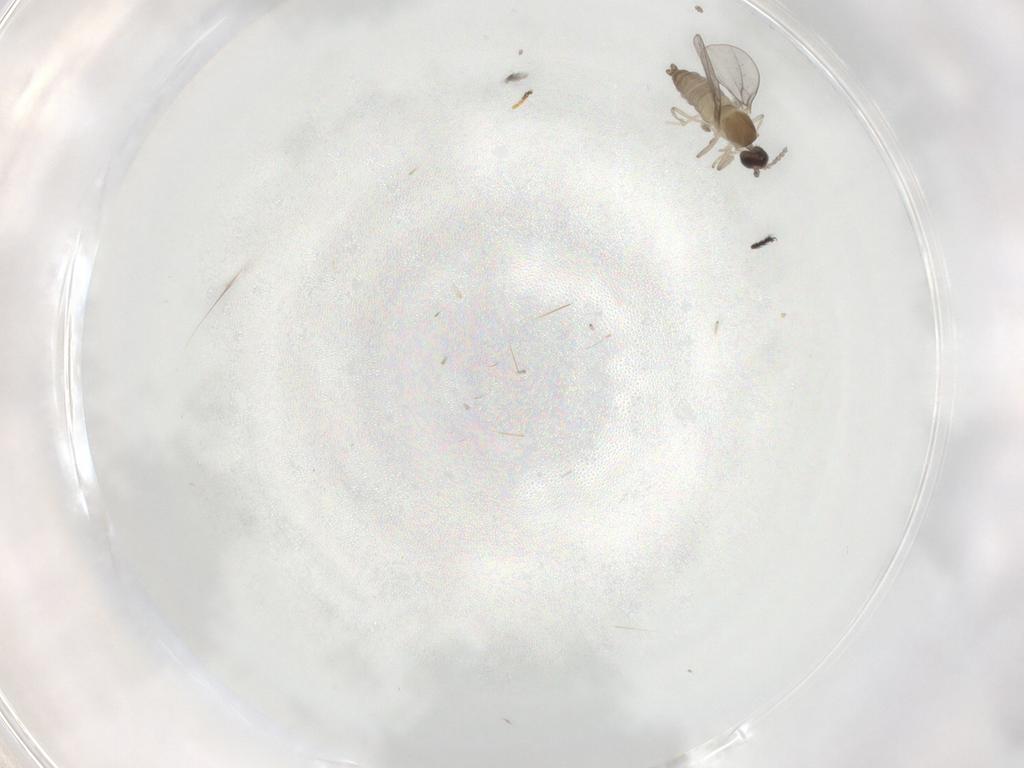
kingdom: Animalia
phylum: Arthropoda
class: Insecta
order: Diptera
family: Cecidomyiidae
